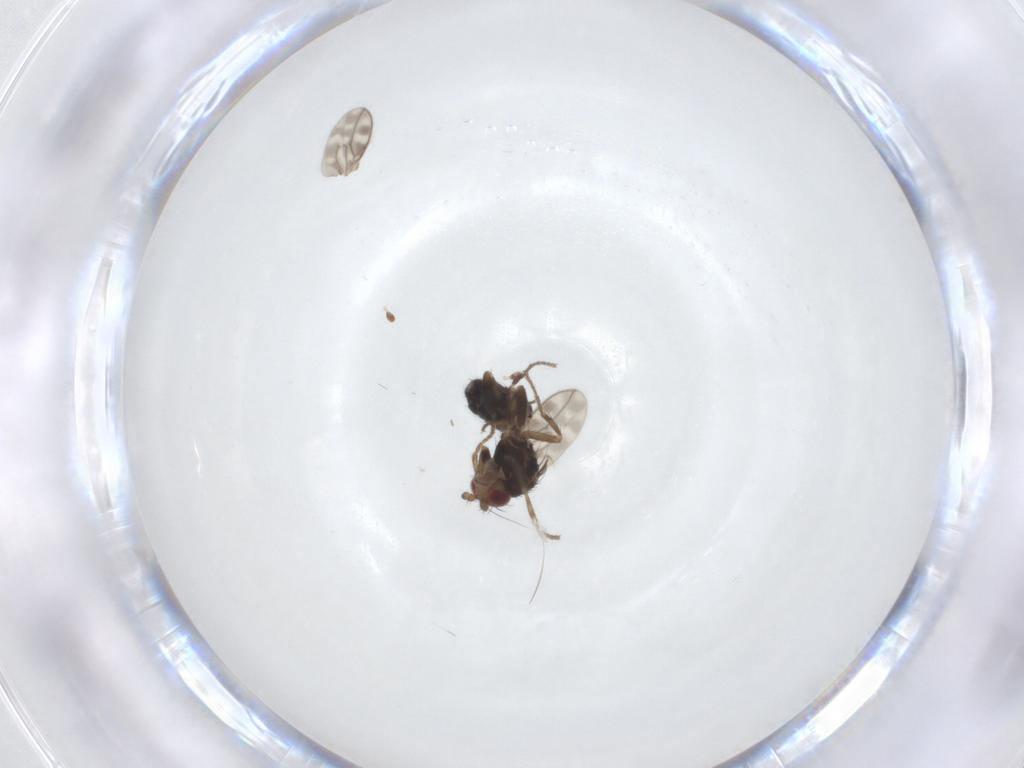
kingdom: Animalia
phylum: Arthropoda
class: Insecta
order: Diptera
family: Sphaeroceridae
